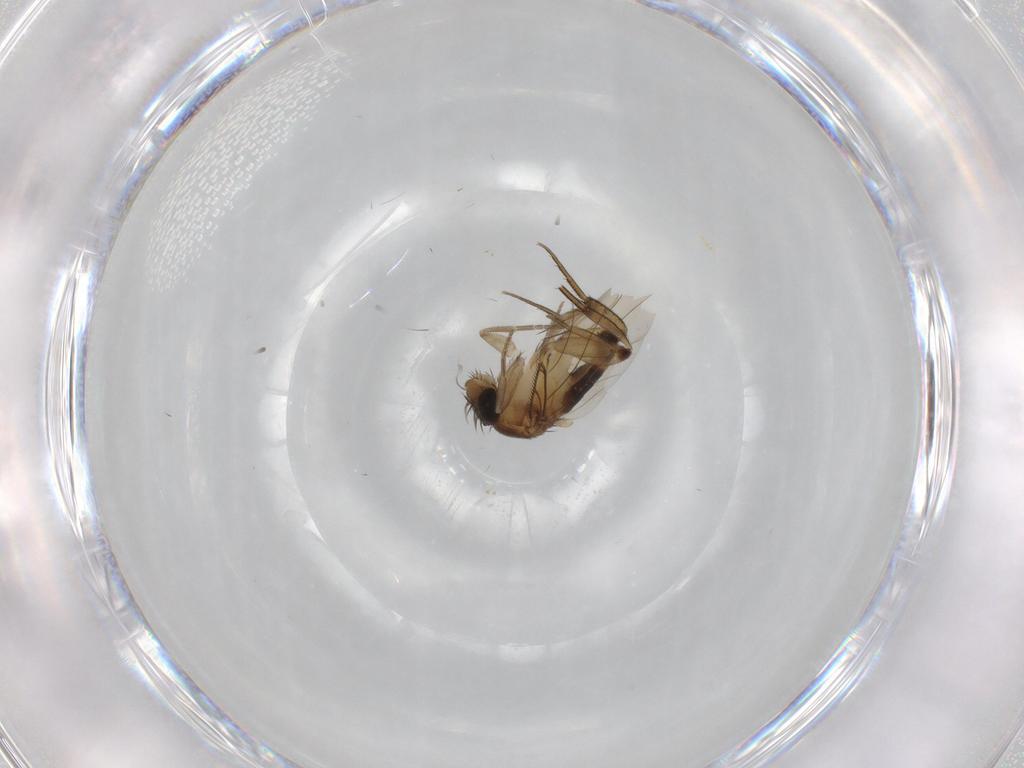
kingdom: Animalia
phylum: Arthropoda
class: Insecta
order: Diptera
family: Phoridae
